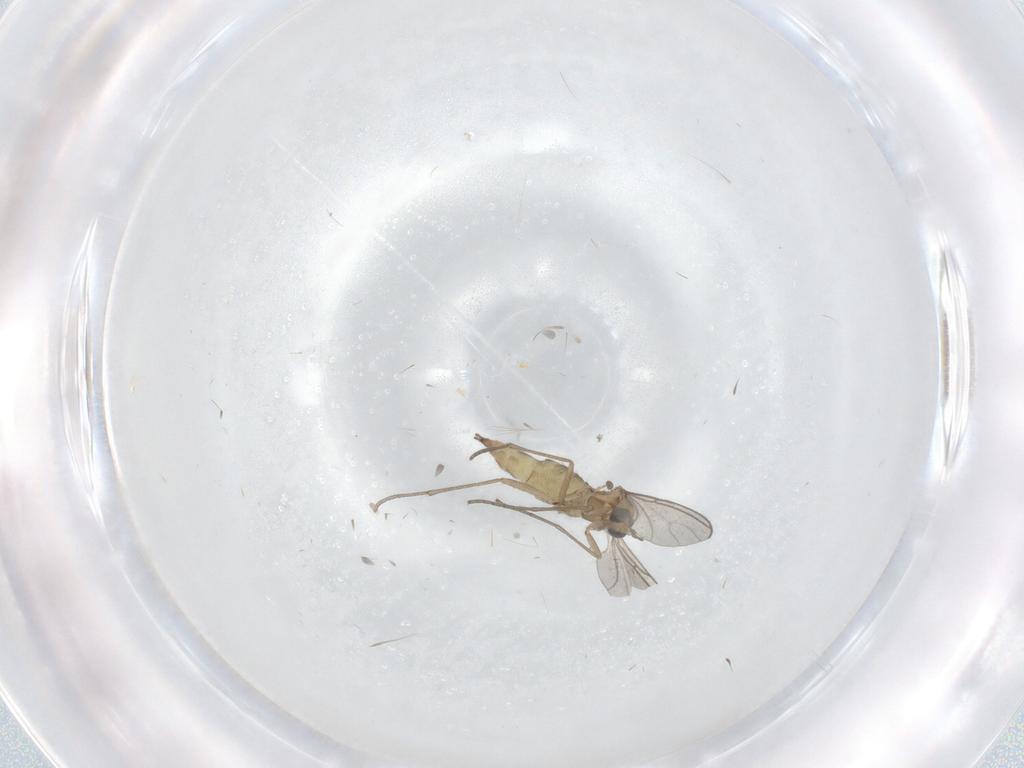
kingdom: Animalia
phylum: Arthropoda
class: Insecta
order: Diptera
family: Sciaridae
